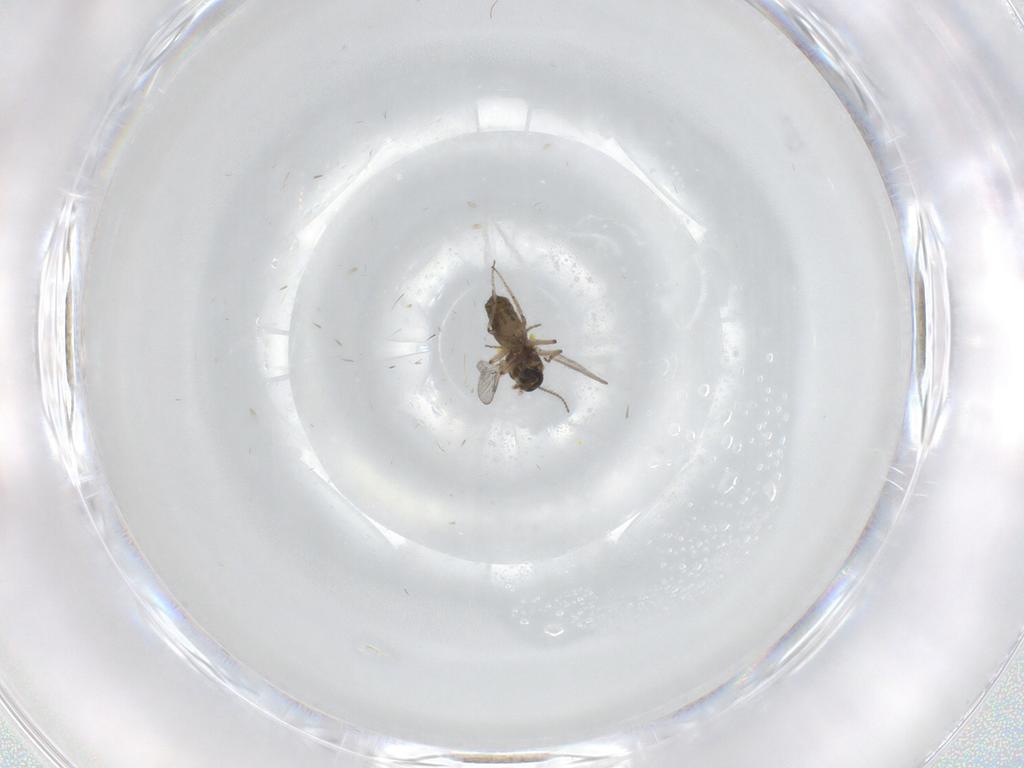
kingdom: Animalia
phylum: Arthropoda
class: Insecta
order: Diptera
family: Ceratopogonidae
